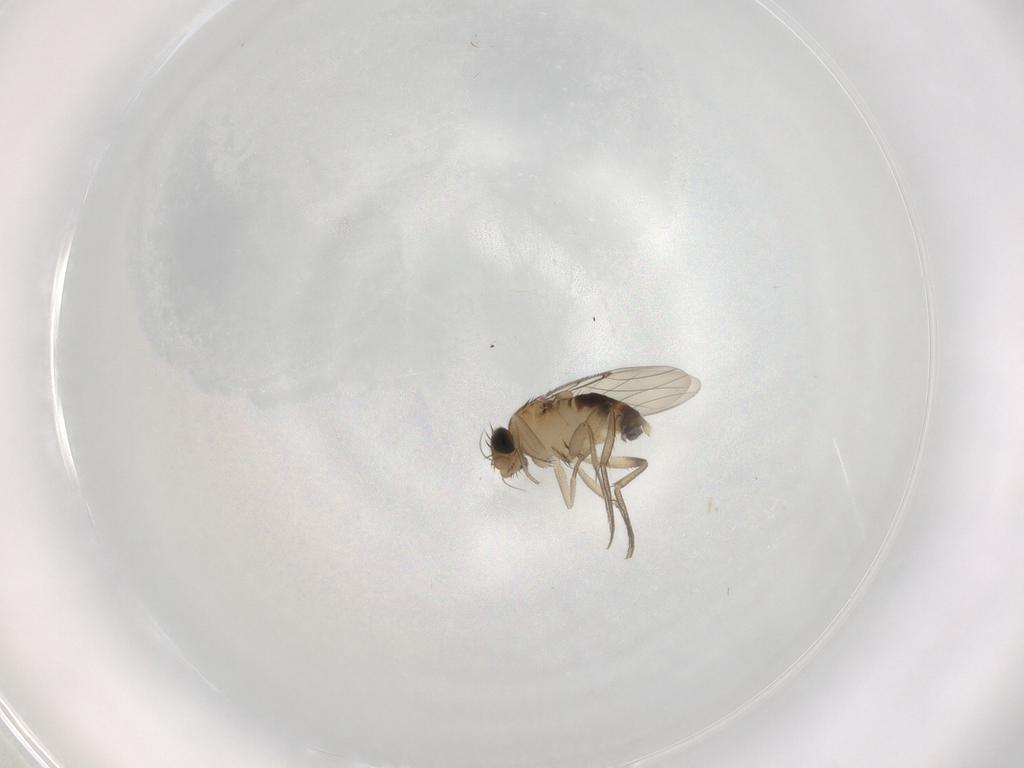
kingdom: Animalia
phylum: Arthropoda
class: Insecta
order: Diptera
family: Phoridae
